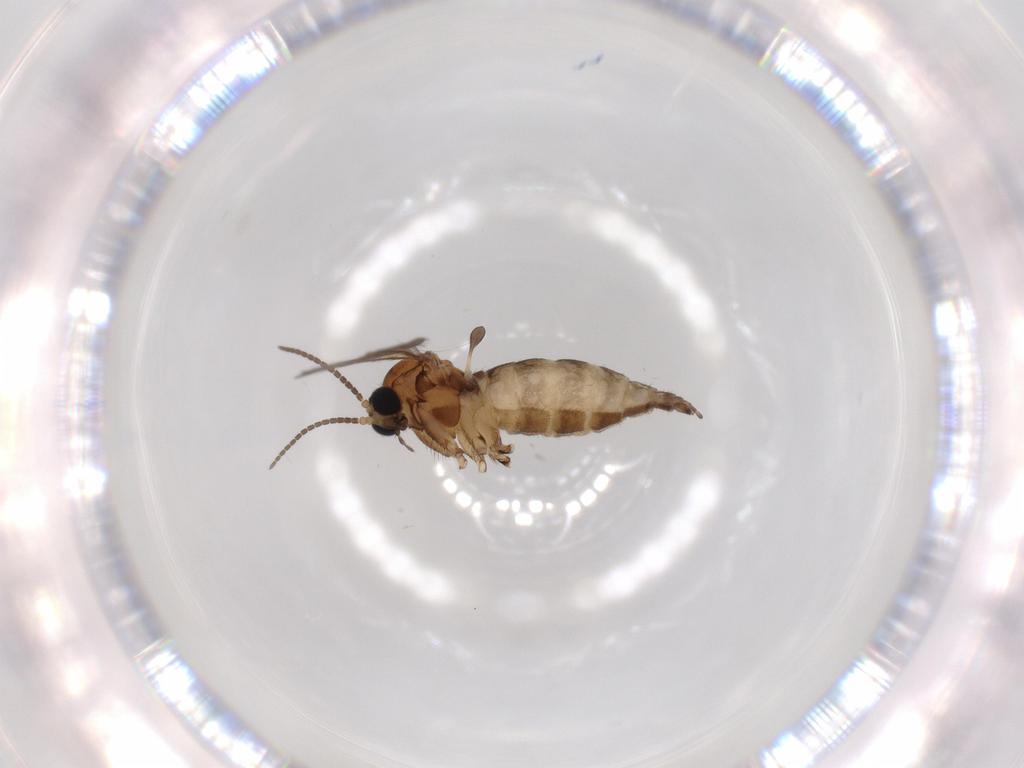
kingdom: Animalia
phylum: Arthropoda
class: Insecta
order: Diptera
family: Sciaridae
